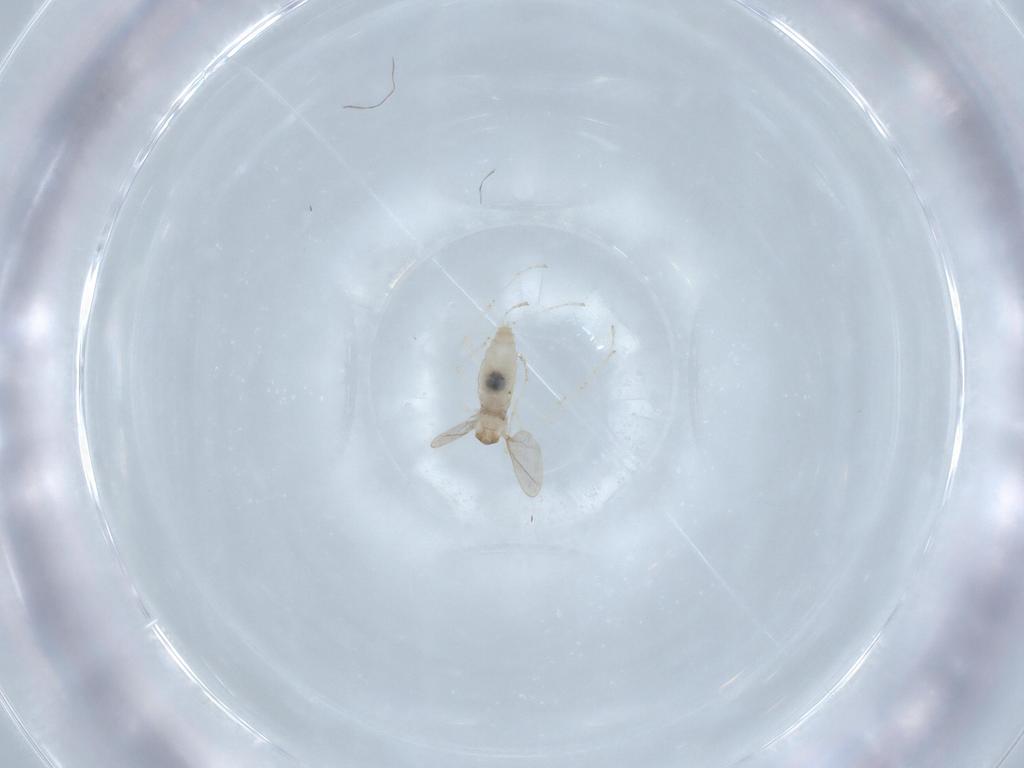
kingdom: Animalia
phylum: Arthropoda
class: Insecta
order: Diptera
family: Cecidomyiidae
